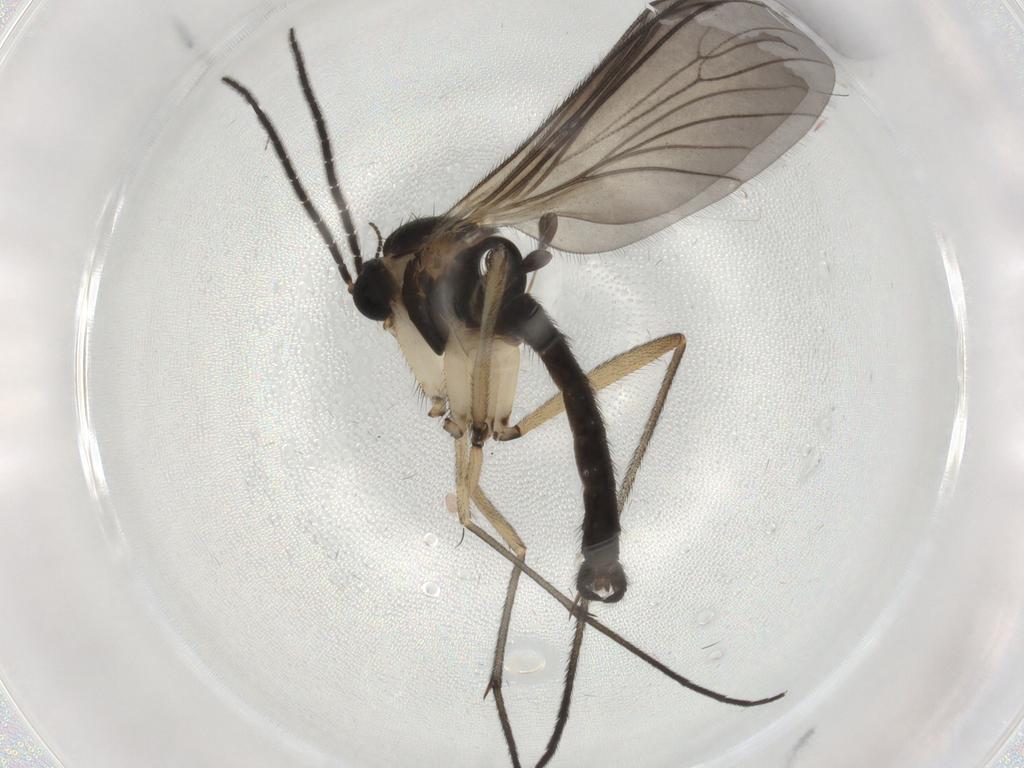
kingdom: Animalia
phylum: Arthropoda
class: Insecta
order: Diptera
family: Sciaridae
